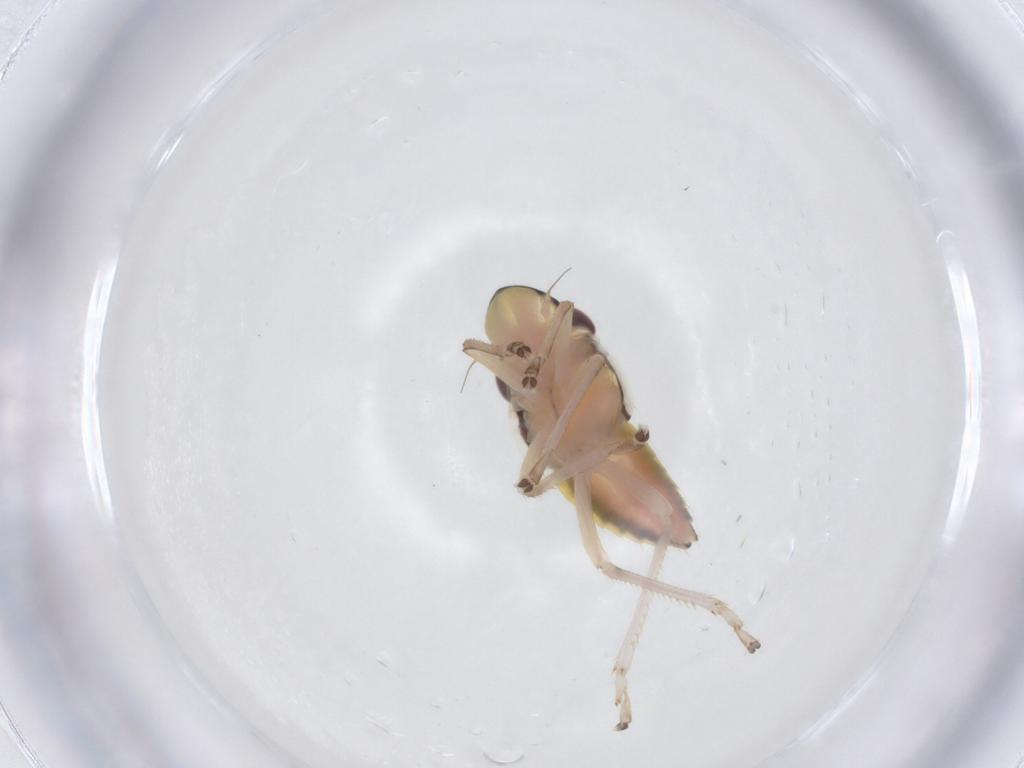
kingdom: Animalia
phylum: Arthropoda
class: Insecta
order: Hemiptera
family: Cicadellidae
